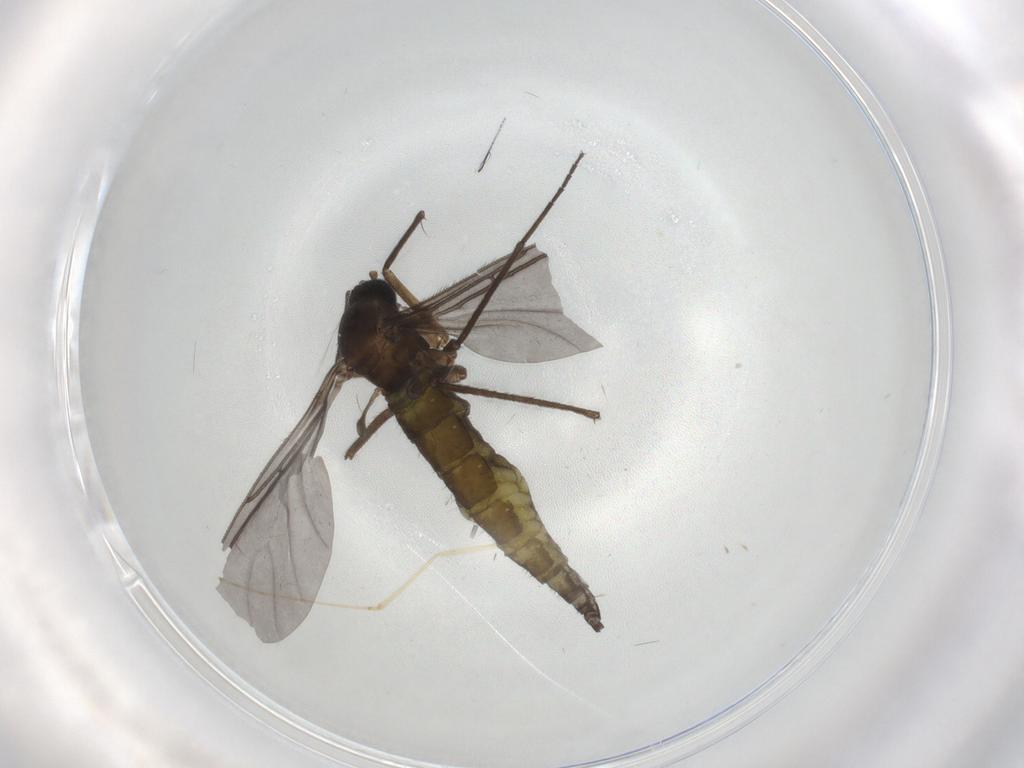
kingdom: Animalia
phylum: Arthropoda
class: Insecta
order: Diptera
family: Sciaridae
